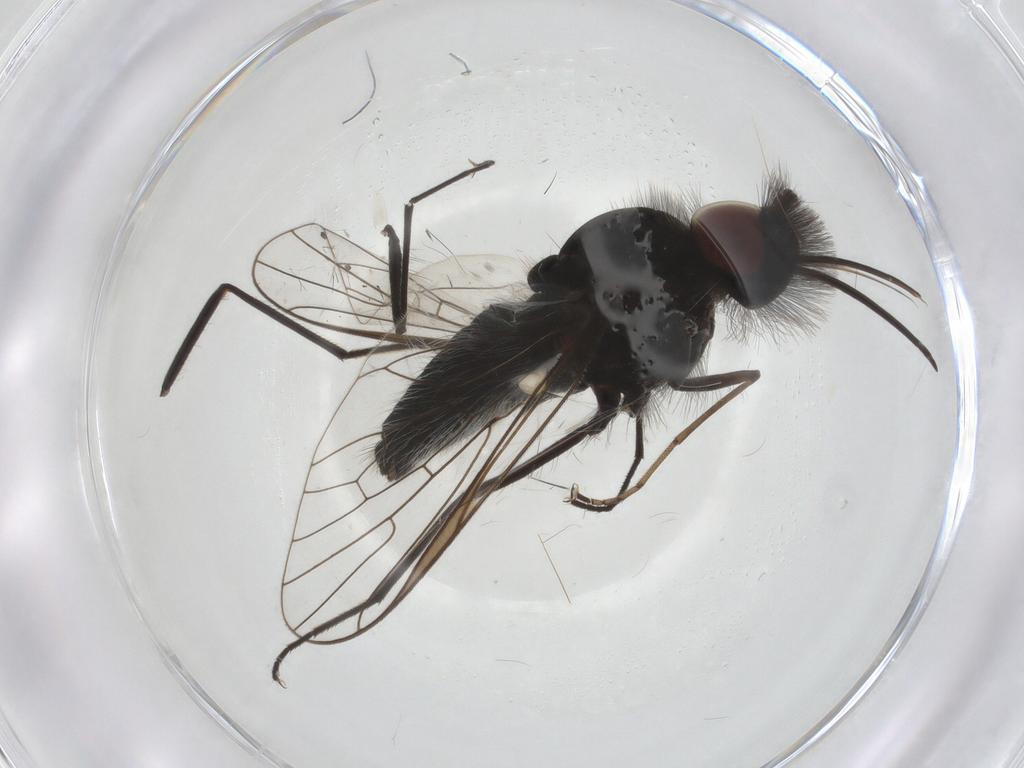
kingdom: Animalia
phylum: Arthropoda
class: Insecta
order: Diptera
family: Bombyliidae
